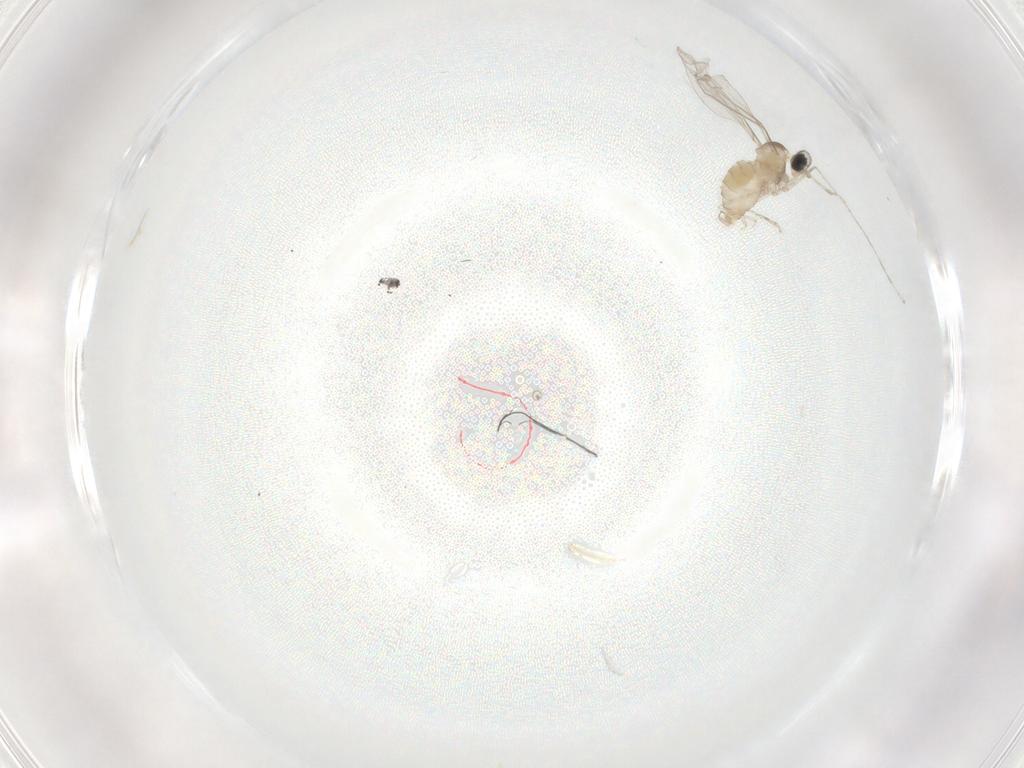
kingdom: Animalia
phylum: Arthropoda
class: Insecta
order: Diptera
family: Cecidomyiidae
